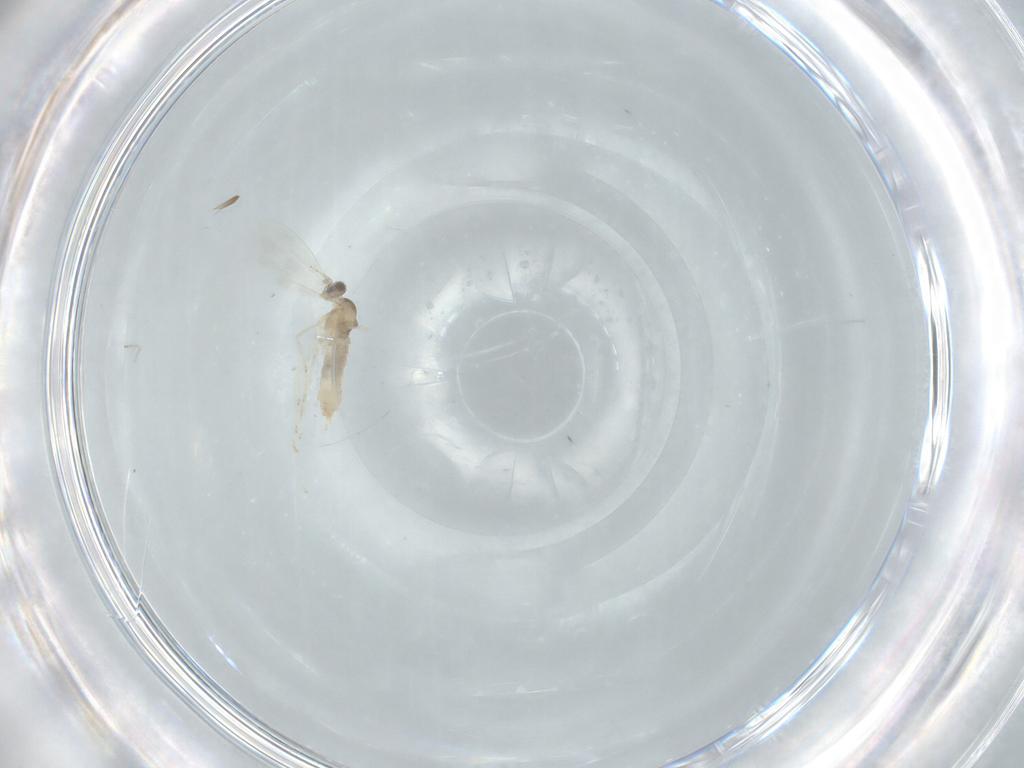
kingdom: Animalia
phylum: Arthropoda
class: Insecta
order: Diptera
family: Cecidomyiidae
